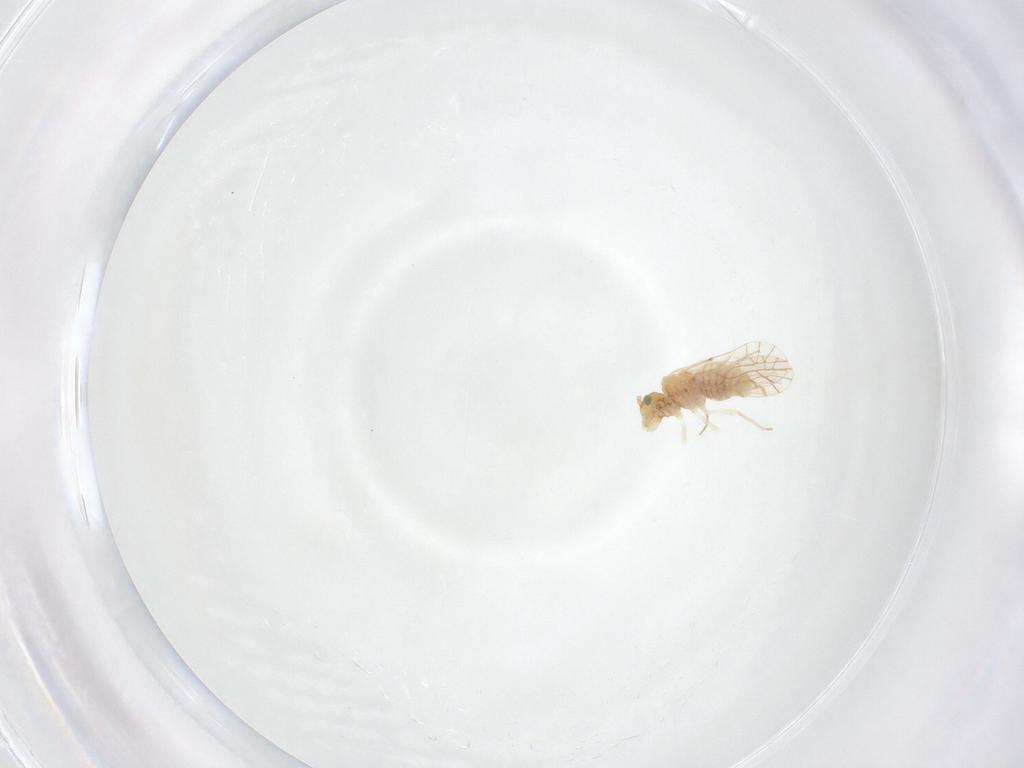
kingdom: Animalia
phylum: Arthropoda
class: Insecta
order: Psocodea
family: Lachesillidae
